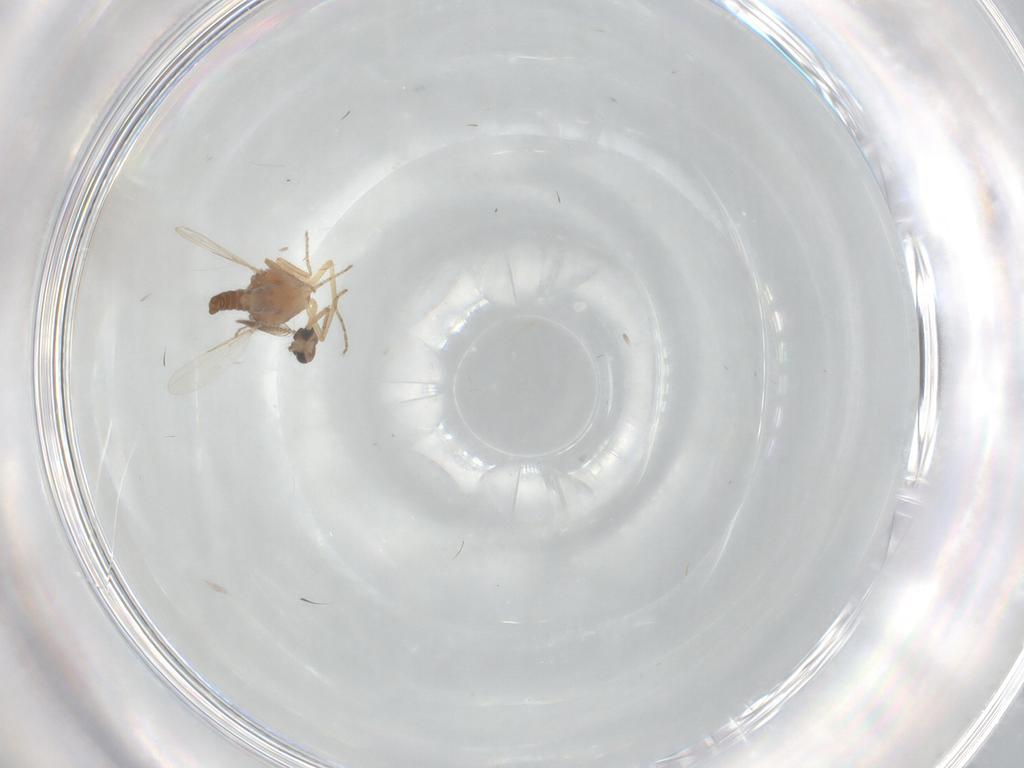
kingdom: Animalia
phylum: Arthropoda
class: Insecta
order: Diptera
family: Ceratopogonidae
